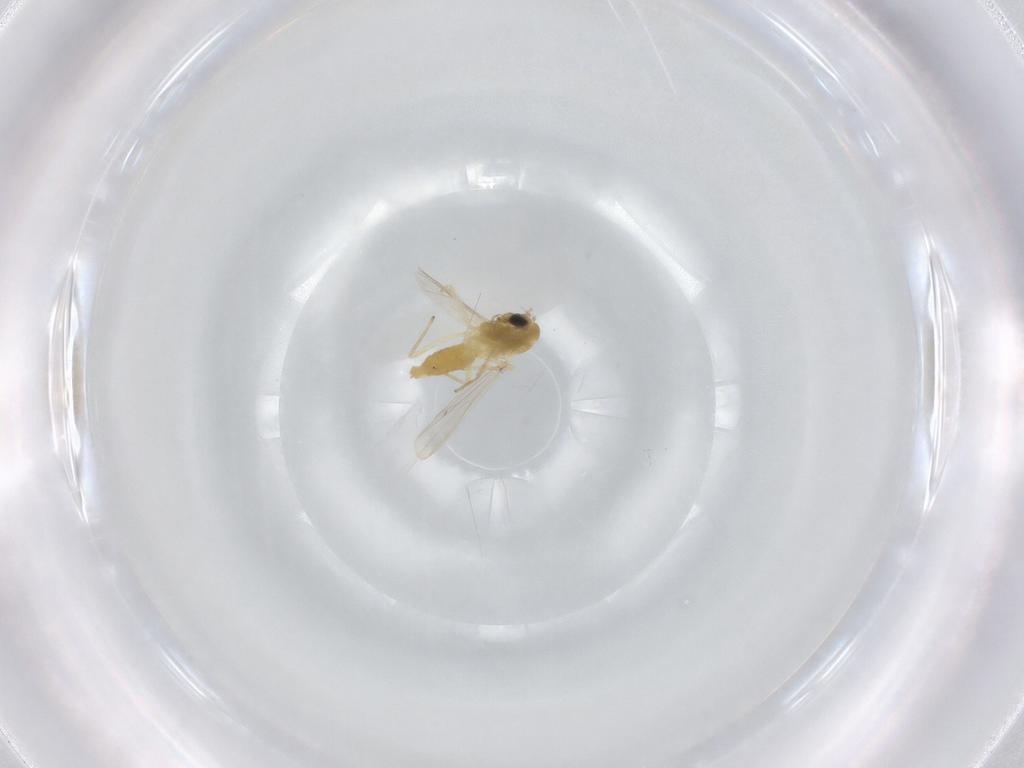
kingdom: Animalia
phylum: Arthropoda
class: Insecta
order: Diptera
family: Chironomidae
